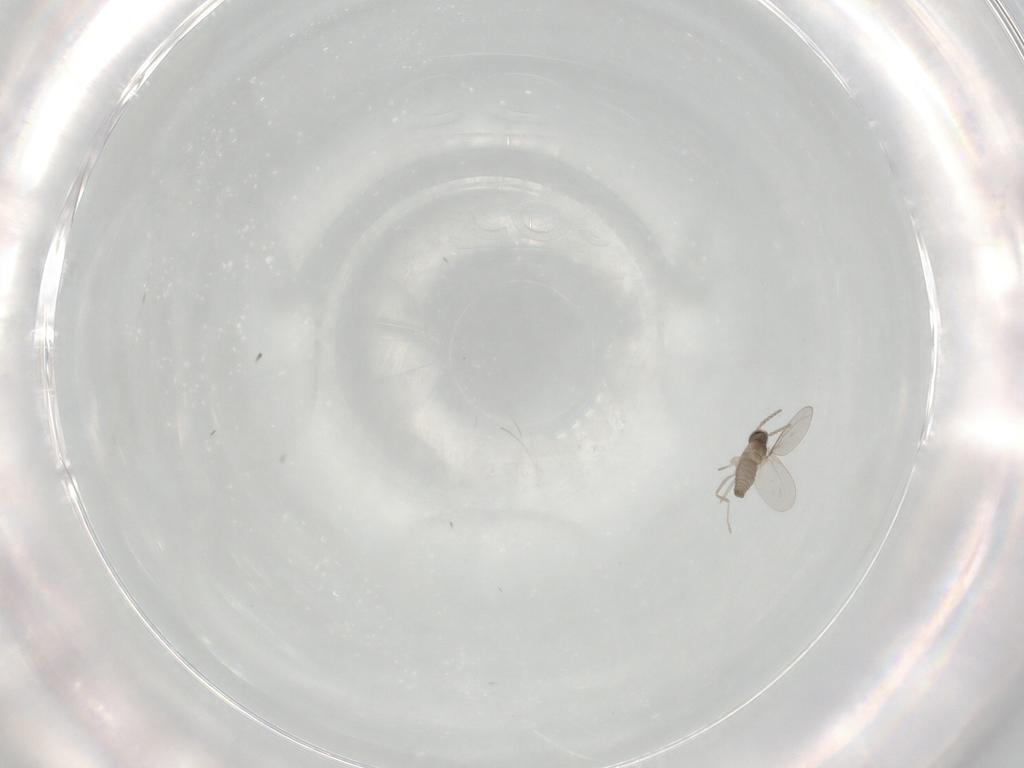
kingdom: Animalia
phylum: Arthropoda
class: Insecta
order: Diptera
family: Cecidomyiidae
